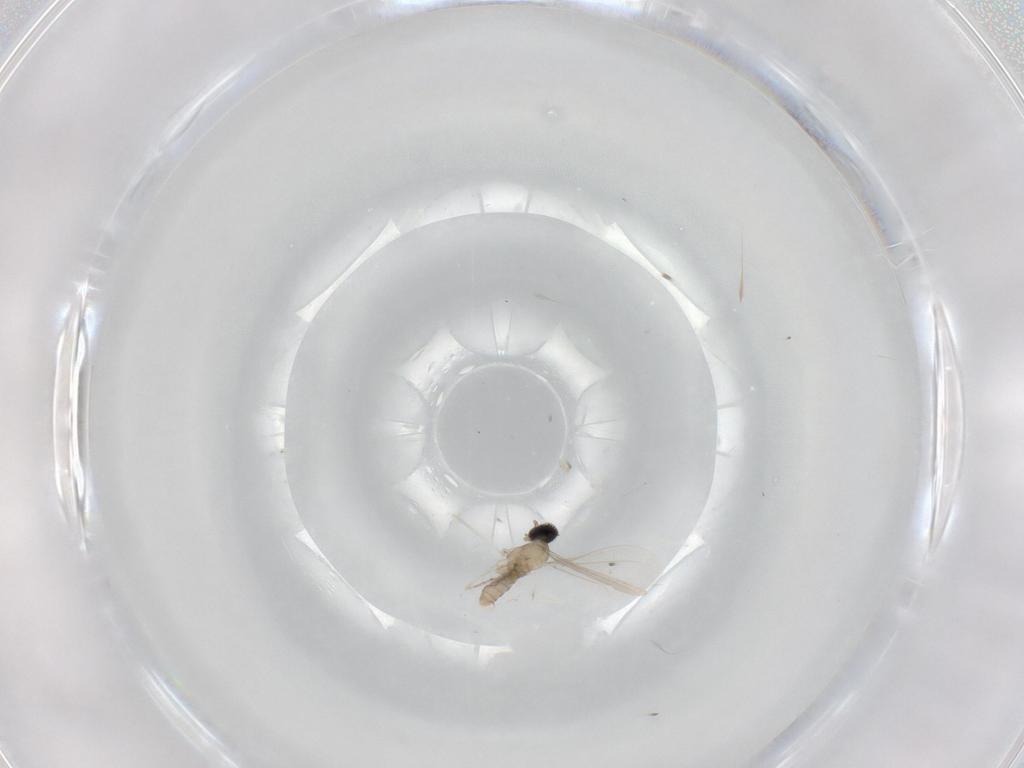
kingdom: Animalia
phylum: Arthropoda
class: Insecta
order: Diptera
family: Cecidomyiidae
